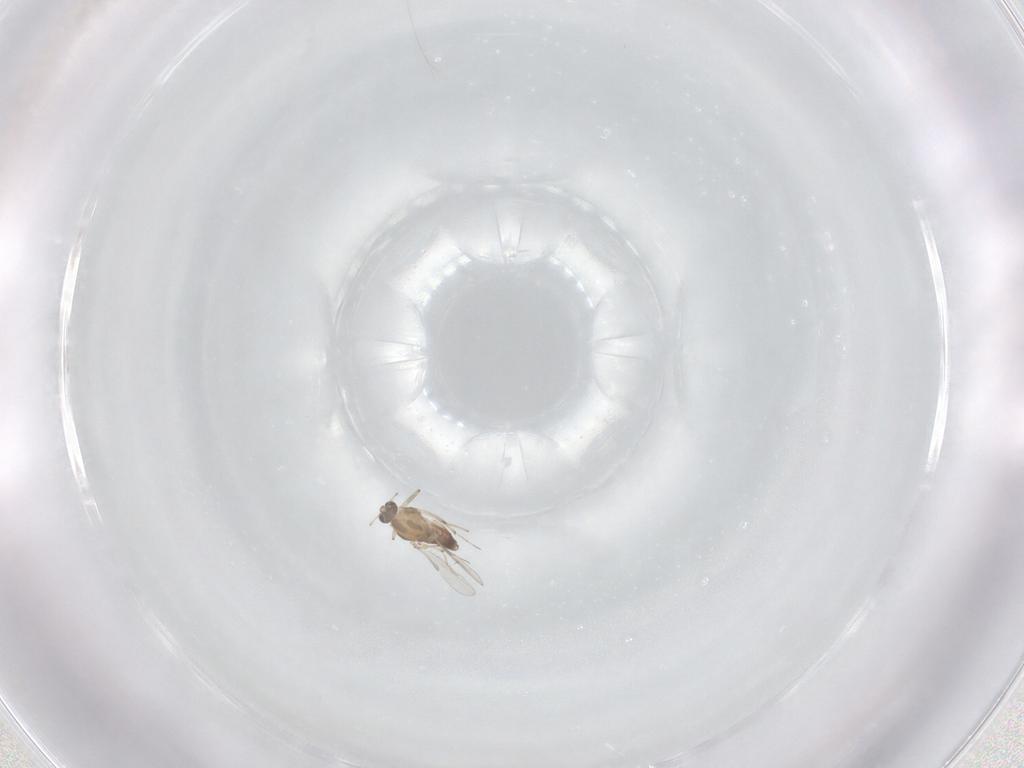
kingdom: Animalia
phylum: Arthropoda
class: Insecta
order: Diptera
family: Chironomidae
